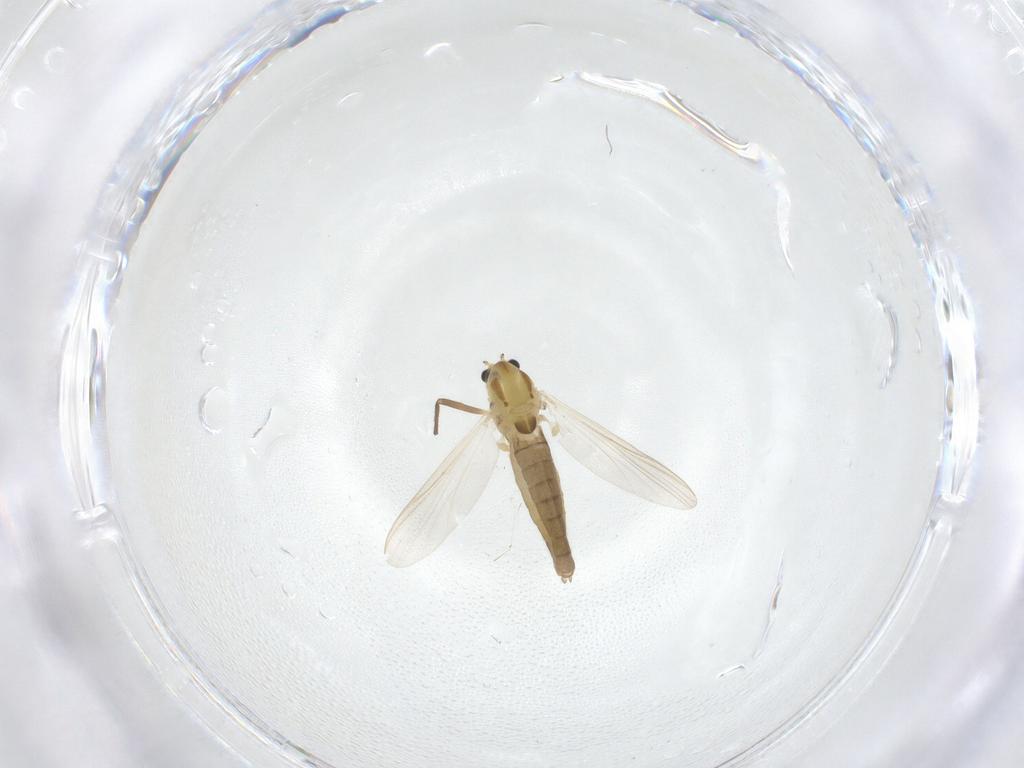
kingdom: Animalia
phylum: Arthropoda
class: Insecta
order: Diptera
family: Chironomidae
